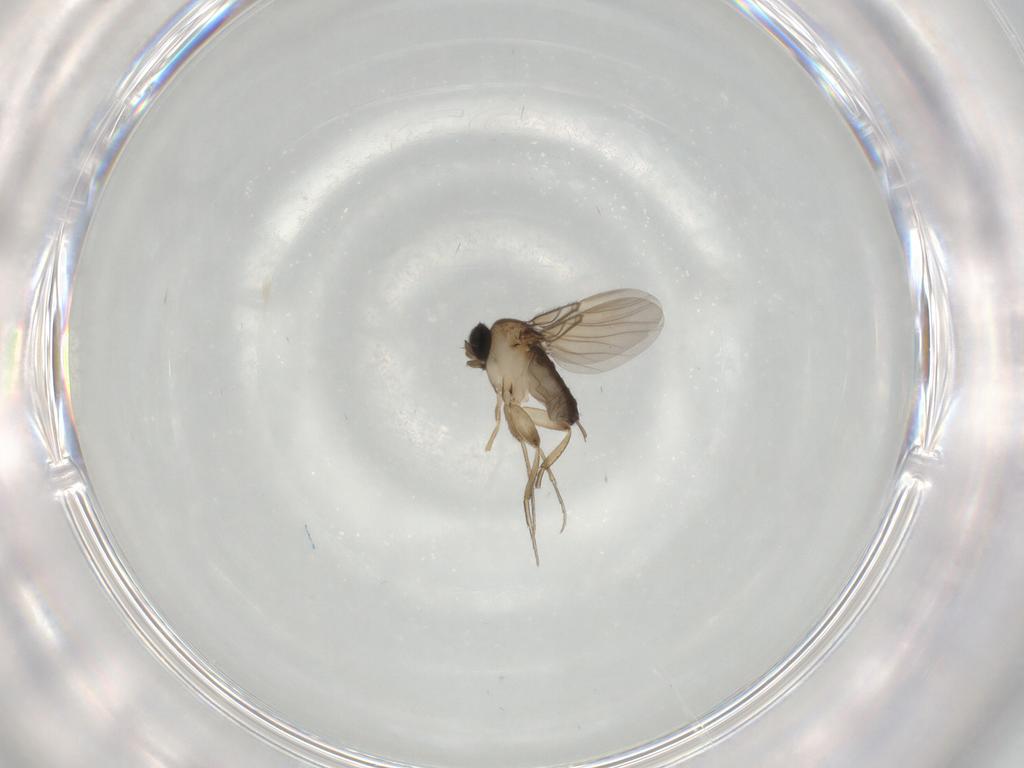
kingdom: Animalia
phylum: Arthropoda
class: Insecta
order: Diptera
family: Phoridae
